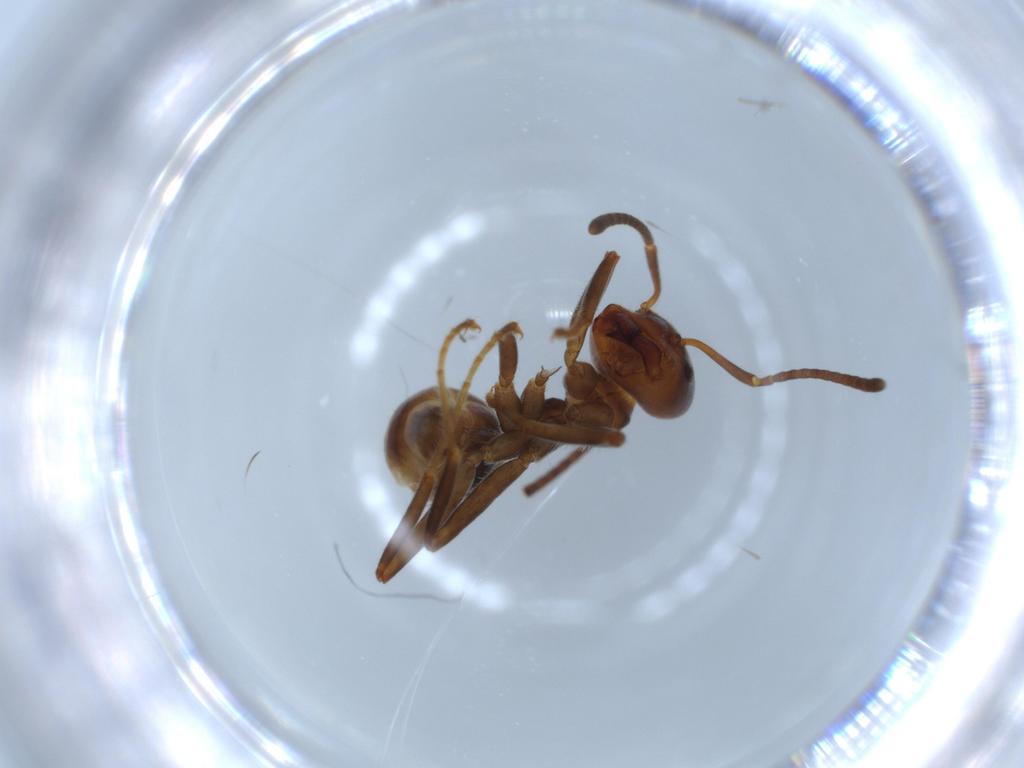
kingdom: Animalia
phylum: Arthropoda
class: Insecta
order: Hymenoptera
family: Formicidae
